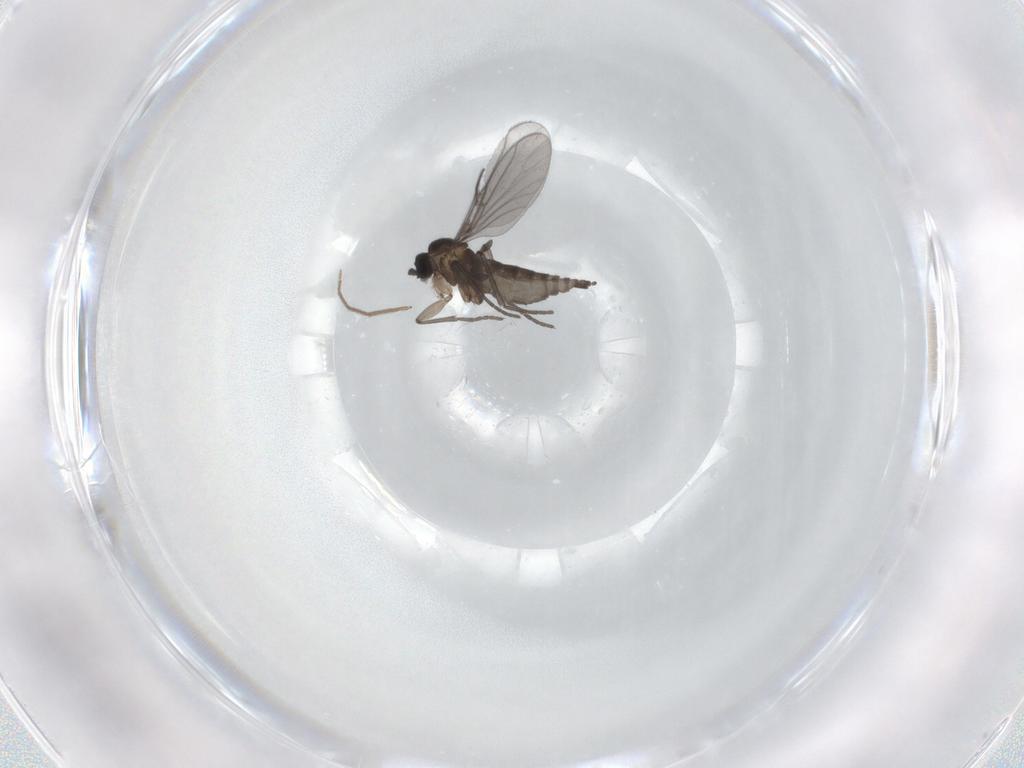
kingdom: Animalia
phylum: Arthropoda
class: Insecta
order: Diptera
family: Chironomidae
